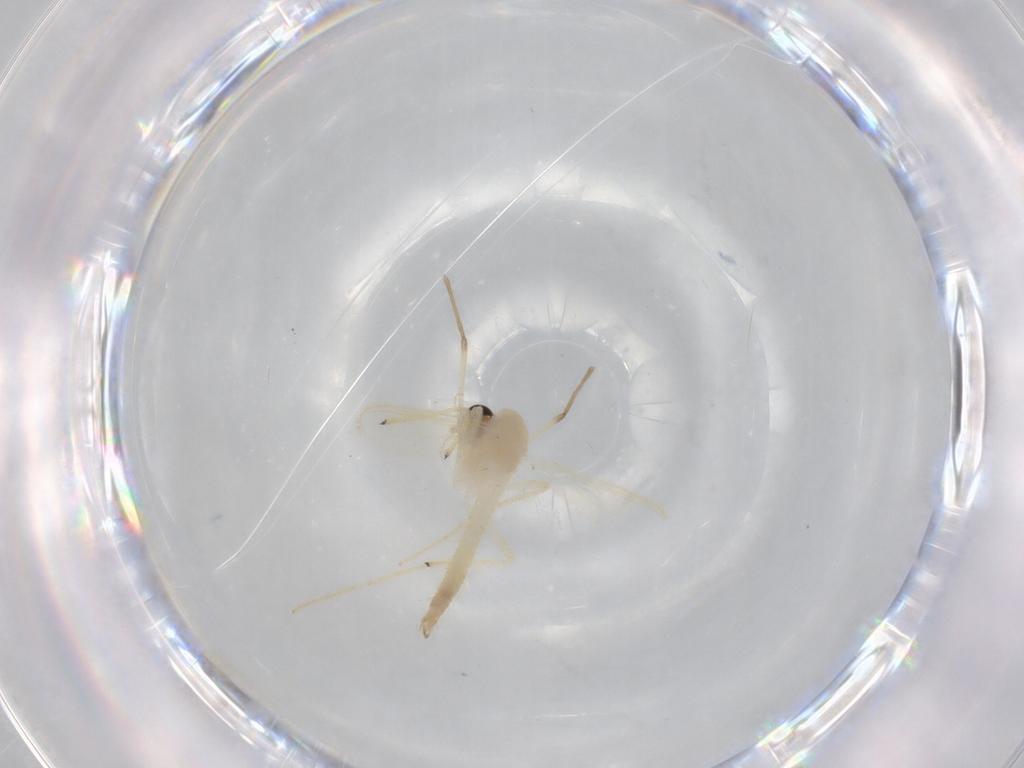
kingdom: Animalia
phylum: Arthropoda
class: Insecta
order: Diptera
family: Chironomidae
